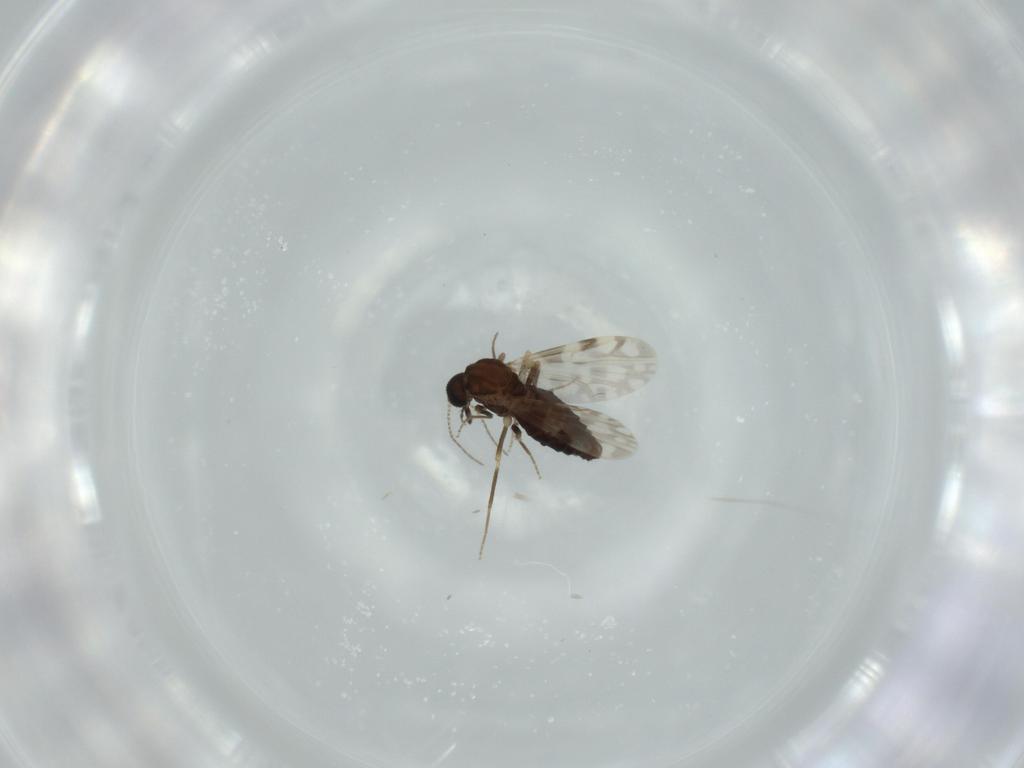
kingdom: Animalia
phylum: Arthropoda
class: Insecta
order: Diptera
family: Ceratopogonidae
